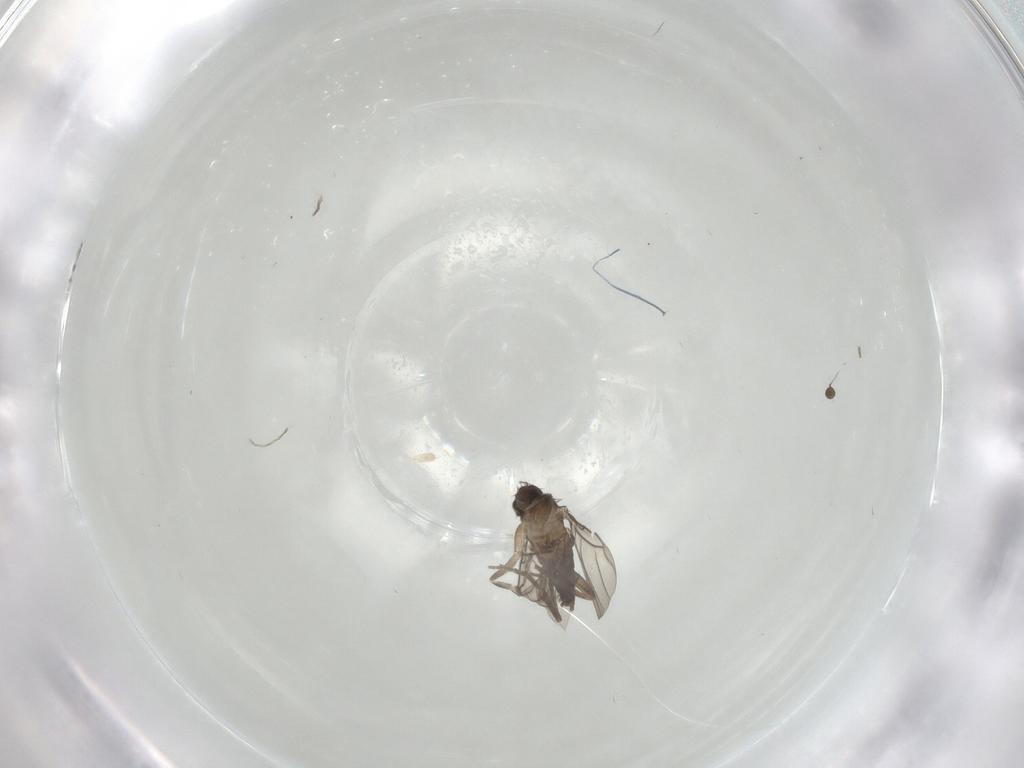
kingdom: Animalia
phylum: Arthropoda
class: Insecta
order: Diptera
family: Chironomidae
